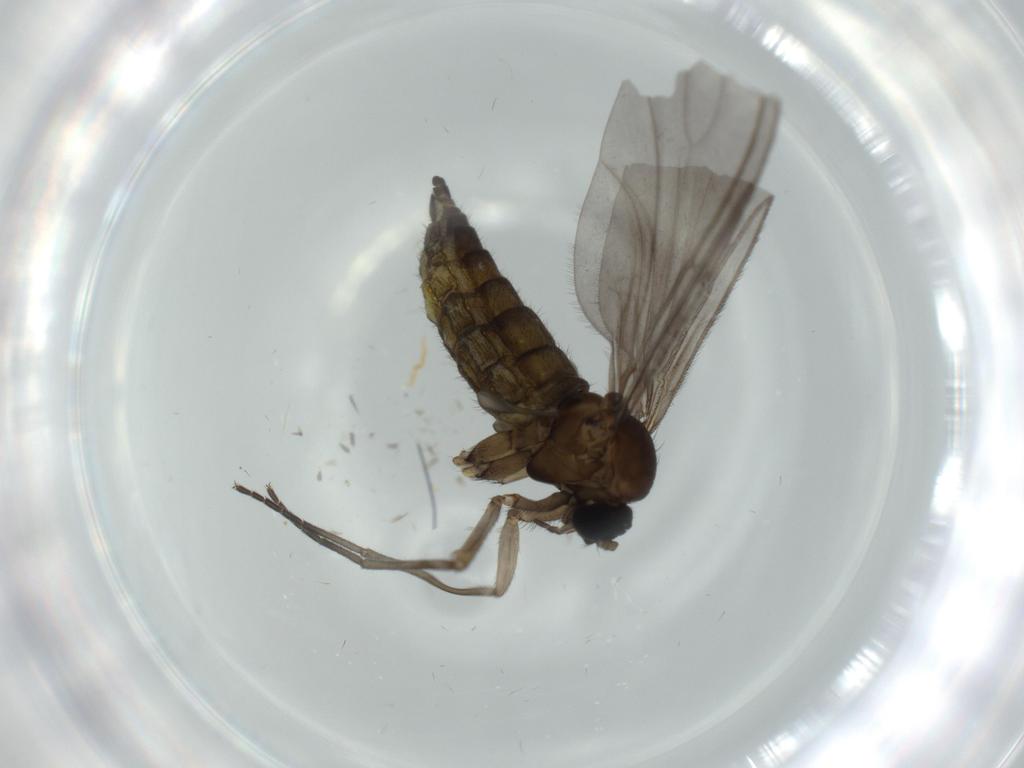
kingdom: Animalia
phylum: Arthropoda
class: Insecta
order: Diptera
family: Sciaridae
